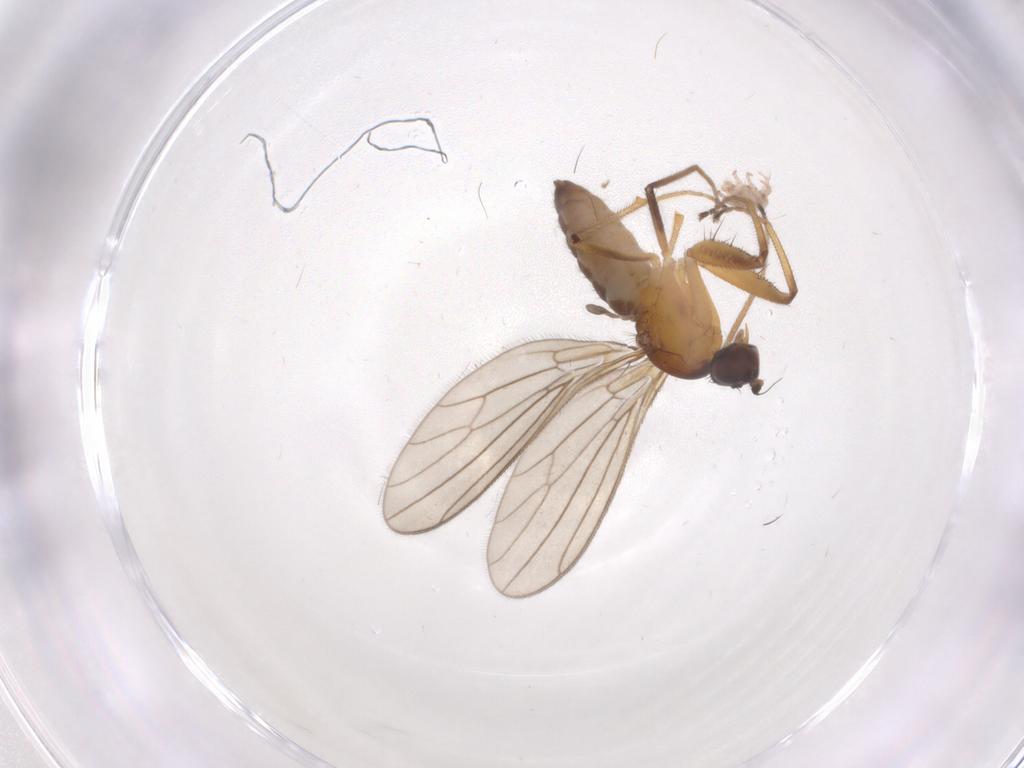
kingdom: Animalia
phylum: Arthropoda
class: Insecta
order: Diptera
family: Empididae
